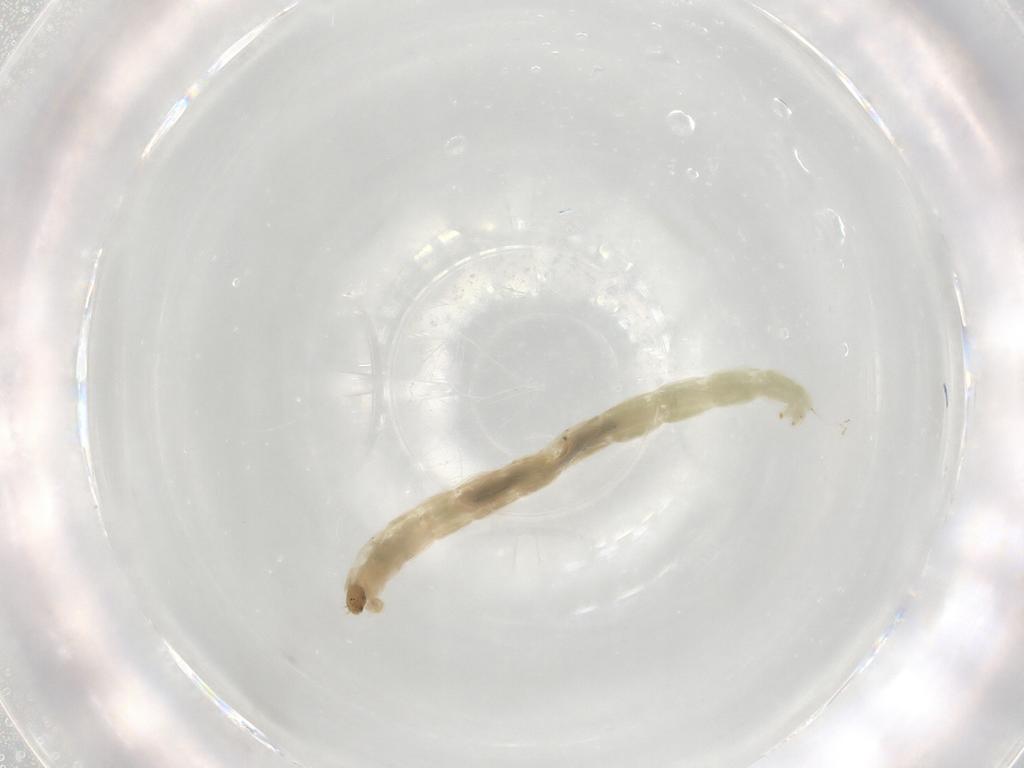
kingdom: Animalia
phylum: Arthropoda
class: Insecta
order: Diptera
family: Chironomidae
